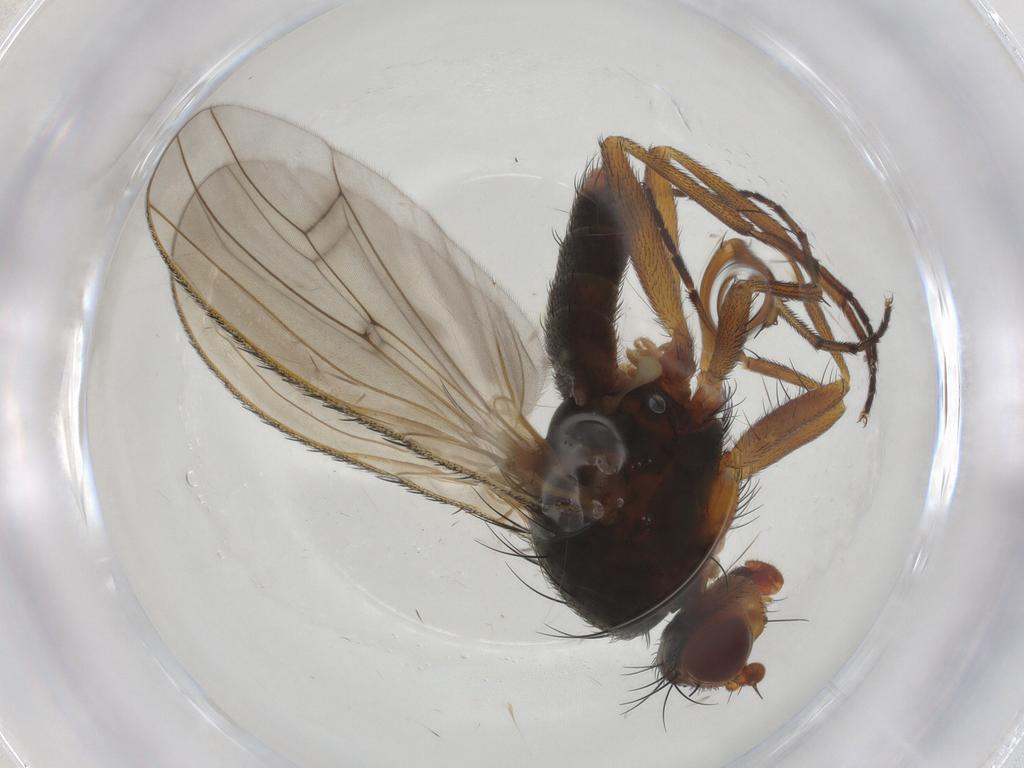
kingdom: Animalia
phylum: Arthropoda
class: Insecta
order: Diptera
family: Heleomyzidae
